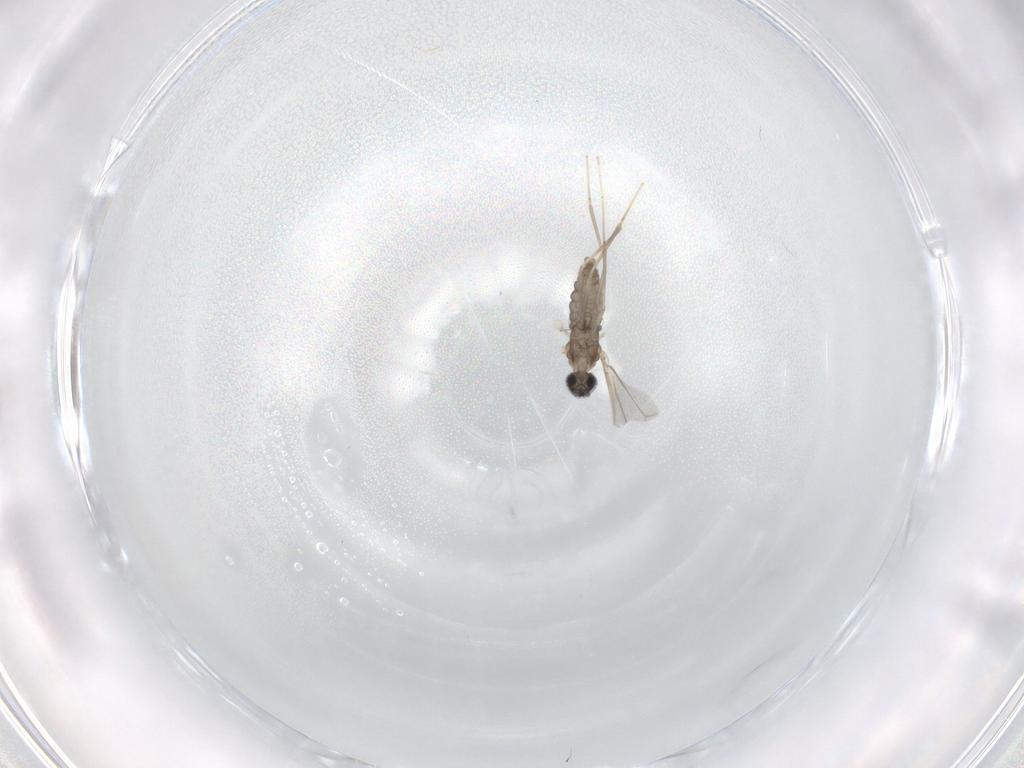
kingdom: Animalia
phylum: Arthropoda
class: Insecta
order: Diptera
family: Cecidomyiidae
